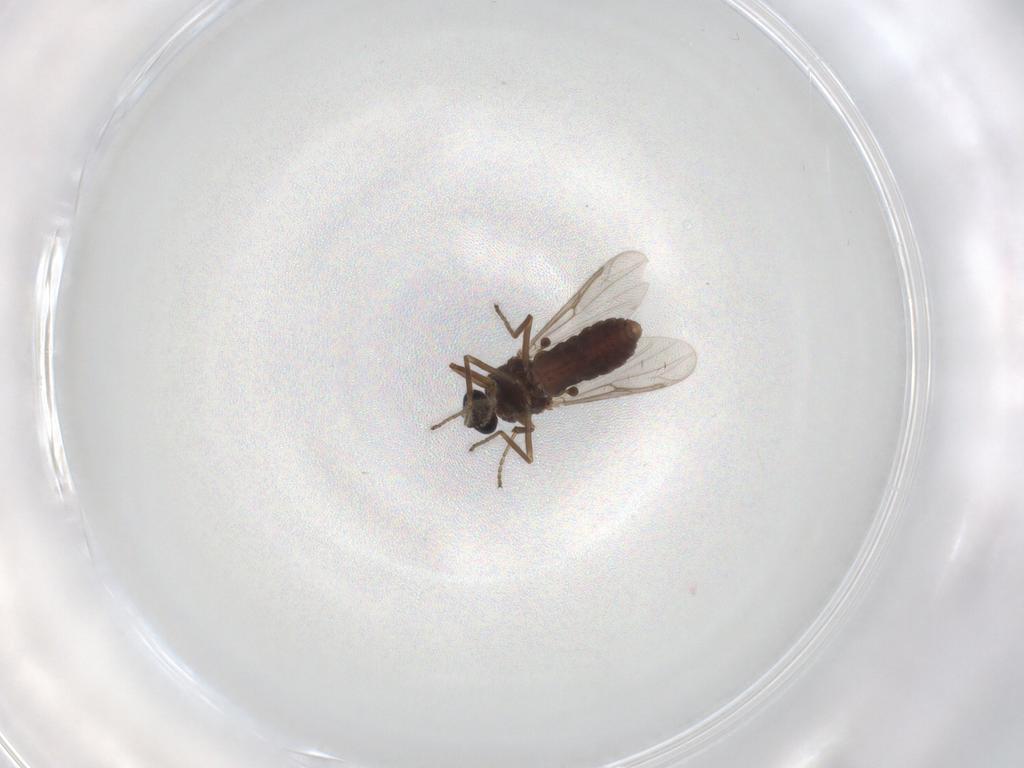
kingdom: Animalia
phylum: Arthropoda
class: Insecta
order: Diptera
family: Ceratopogonidae
